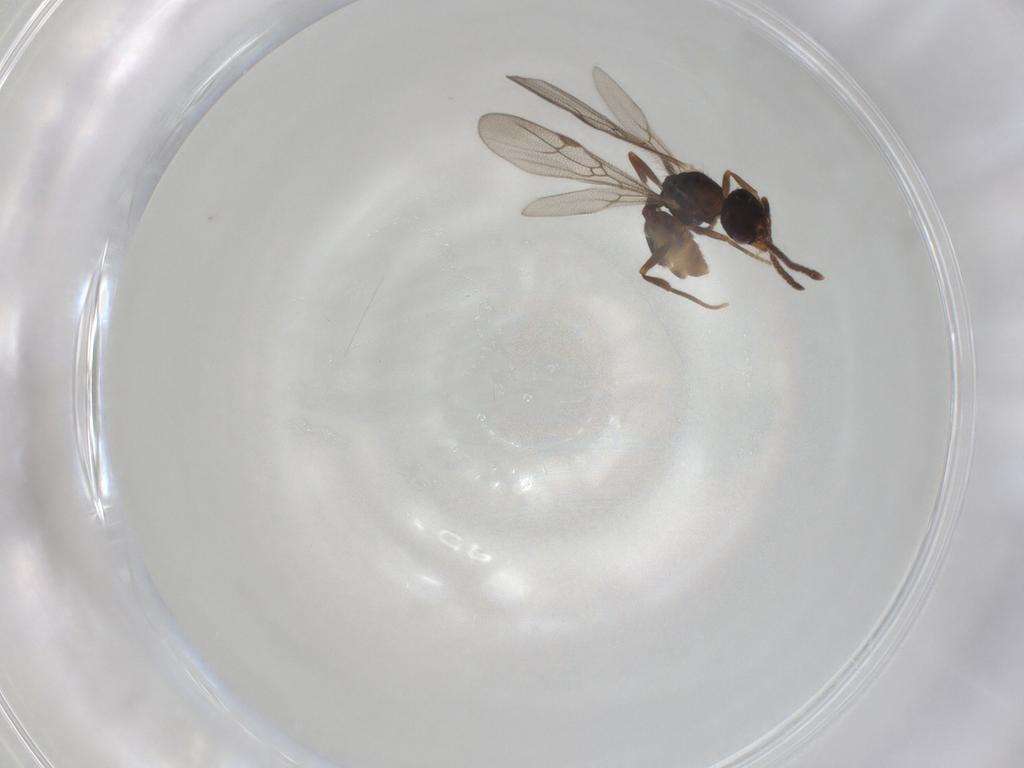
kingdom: Animalia
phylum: Arthropoda
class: Insecta
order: Hymenoptera
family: Formicidae
